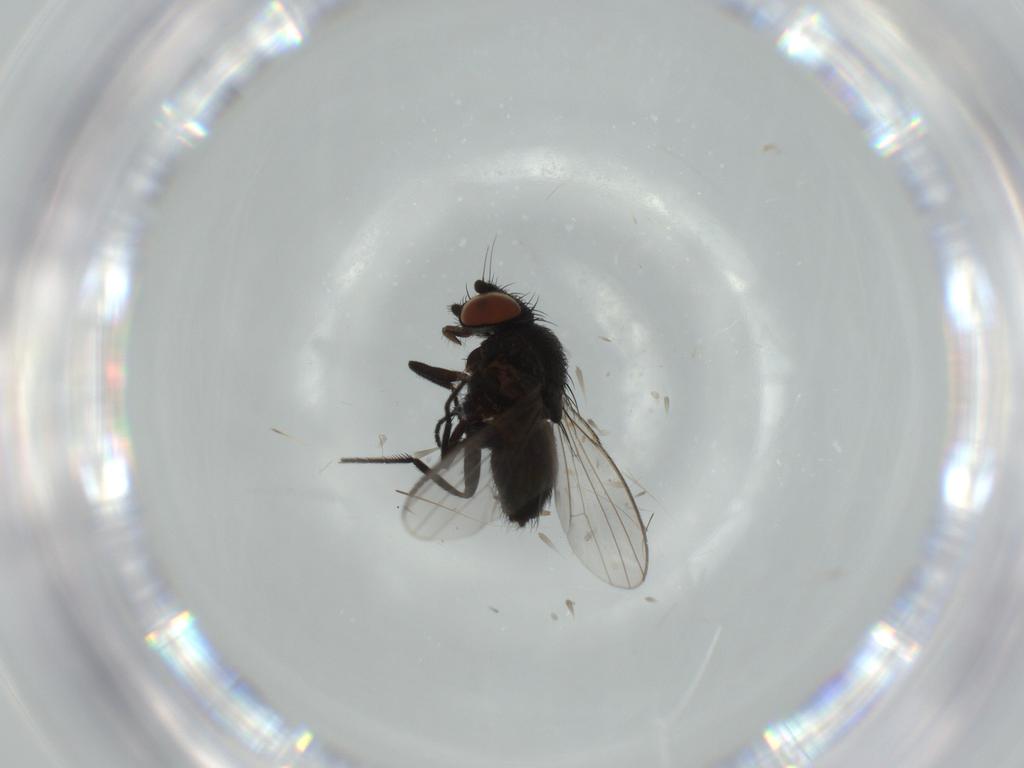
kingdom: Animalia
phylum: Arthropoda
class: Insecta
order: Diptera
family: Milichiidae
